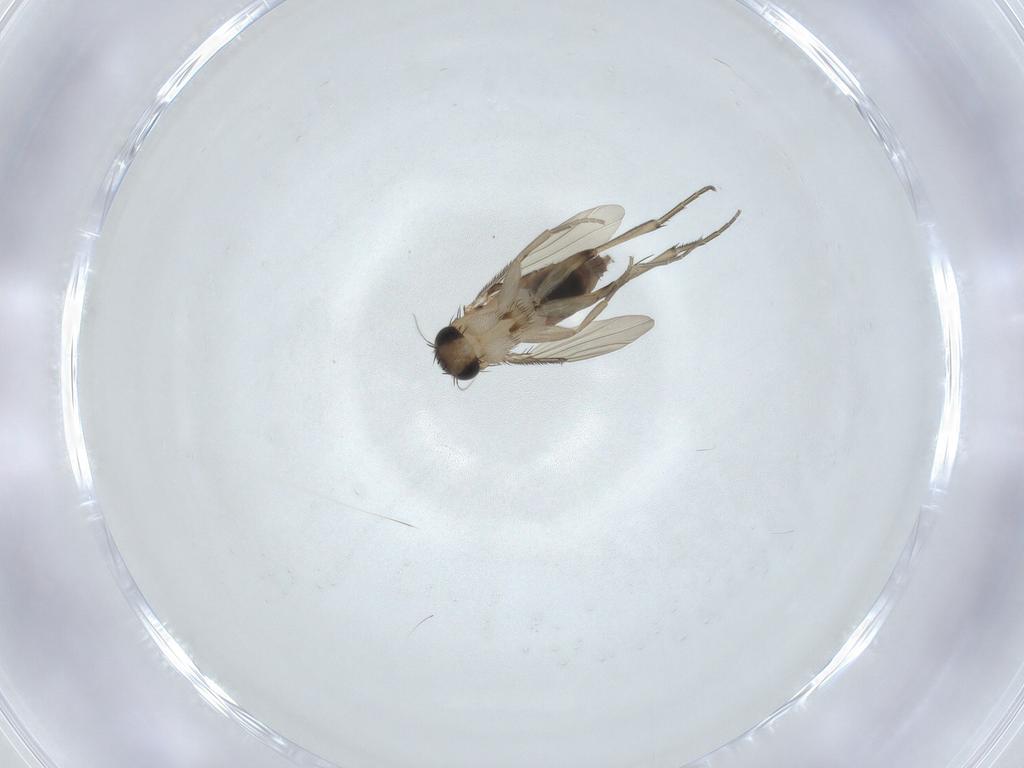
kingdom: Animalia
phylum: Arthropoda
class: Insecta
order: Diptera
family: Phoridae
